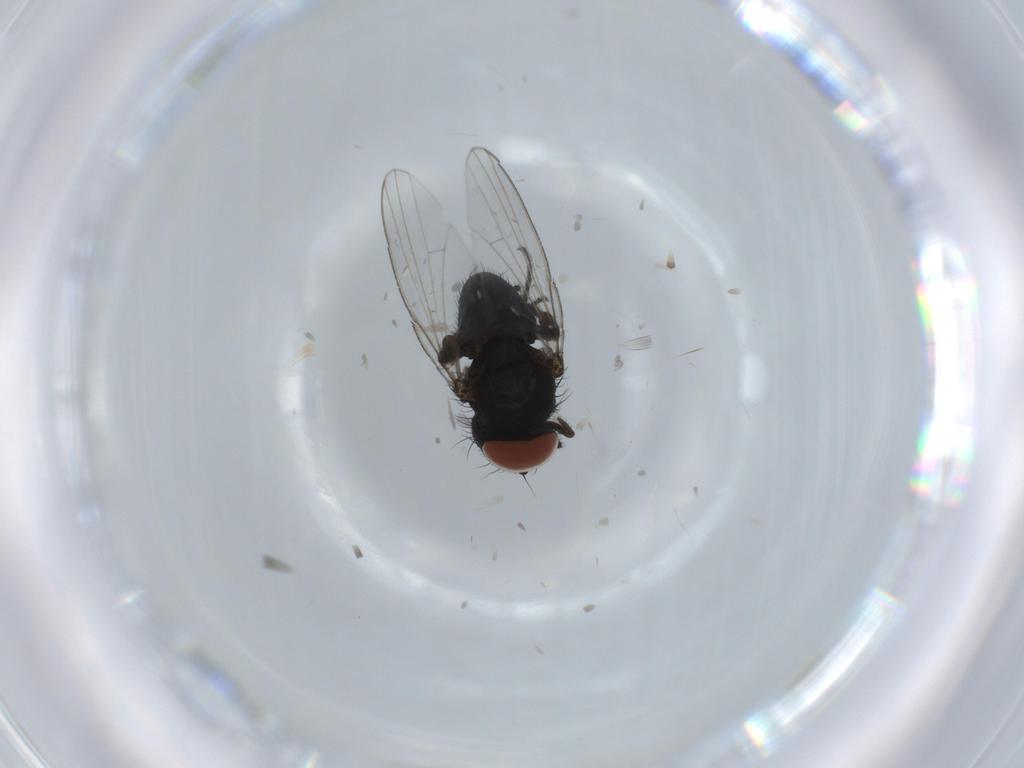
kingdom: Animalia
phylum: Arthropoda
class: Insecta
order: Diptera
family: Milichiidae
